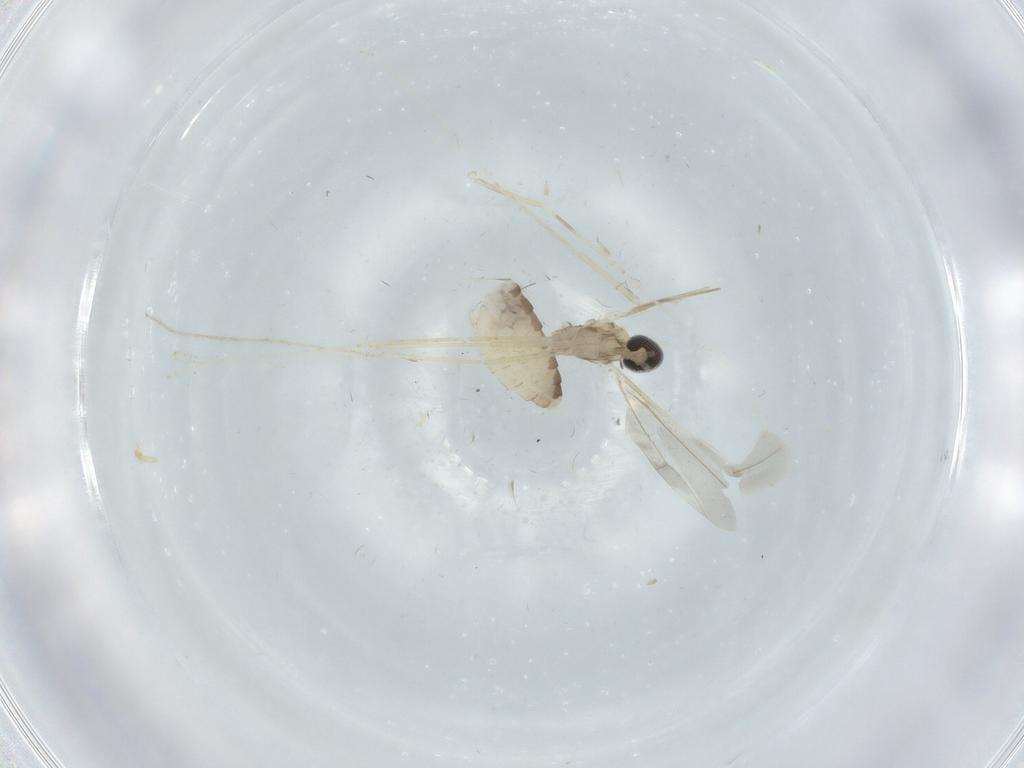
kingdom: Animalia
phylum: Arthropoda
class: Insecta
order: Diptera
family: Cecidomyiidae
